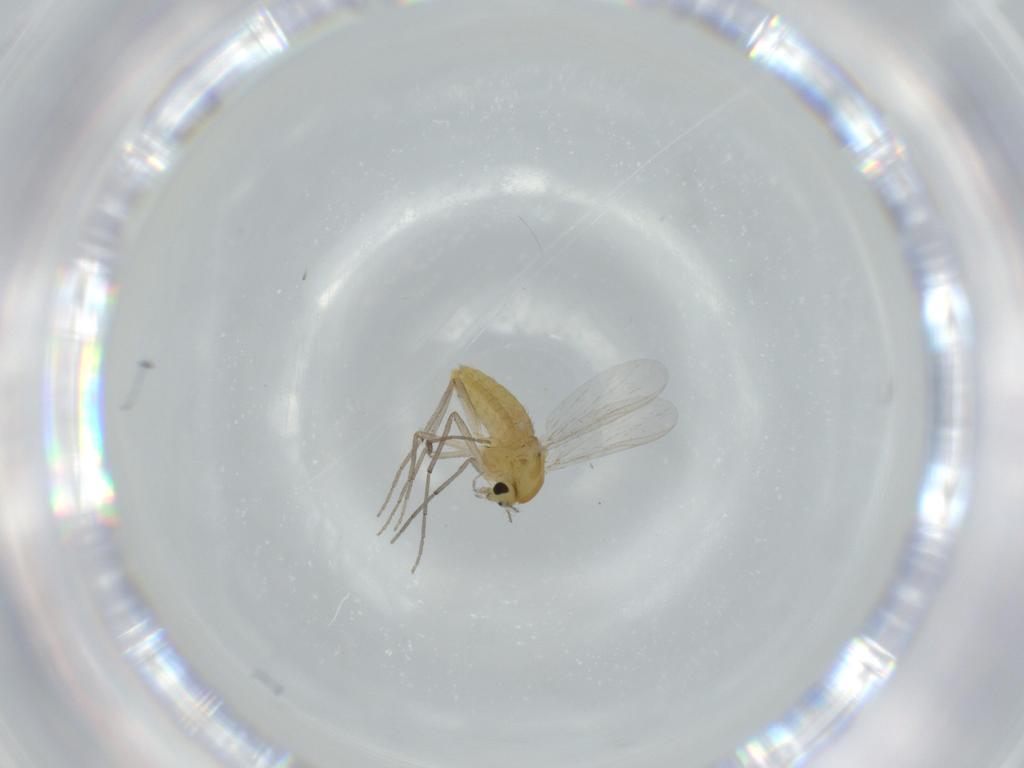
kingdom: Animalia
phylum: Arthropoda
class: Insecta
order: Diptera
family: Chironomidae
